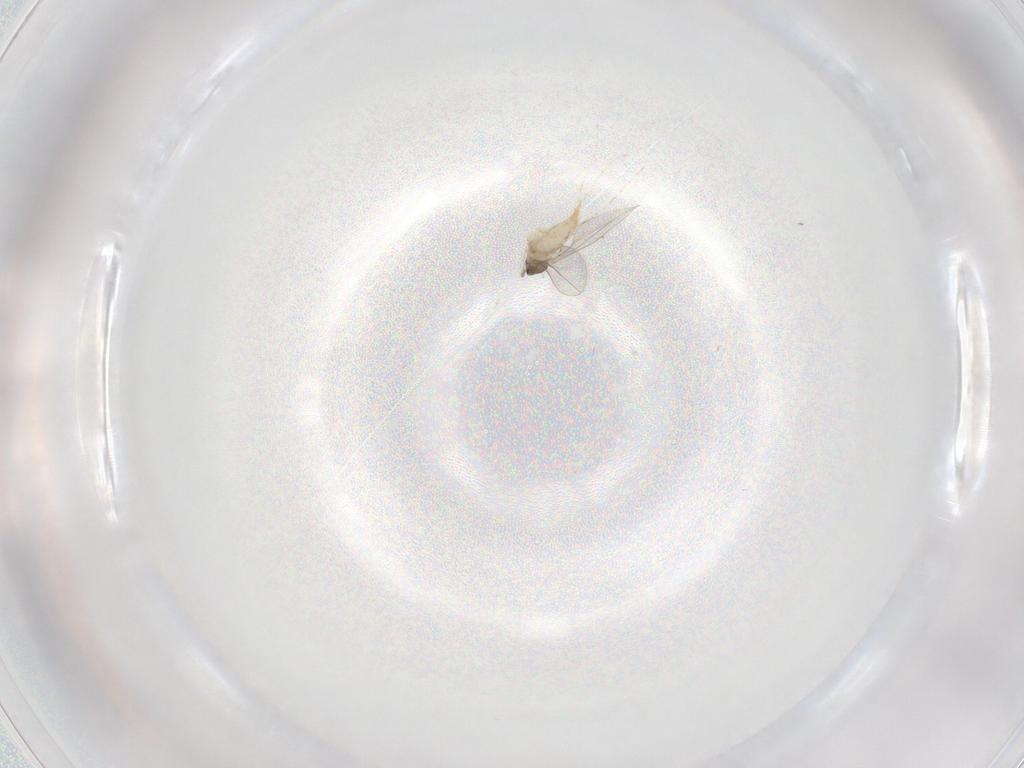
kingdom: Animalia
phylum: Arthropoda
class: Insecta
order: Diptera
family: Cecidomyiidae
